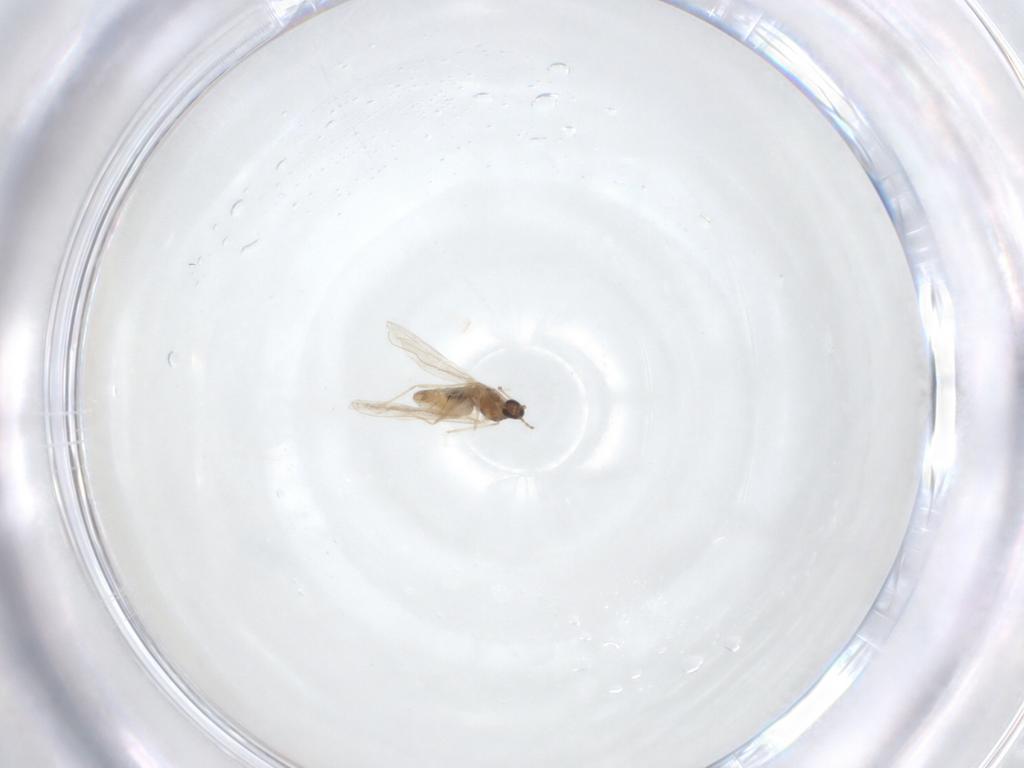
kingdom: Animalia
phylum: Arthropoda
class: Insecta
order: Diptera
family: Cecidomyiidae
